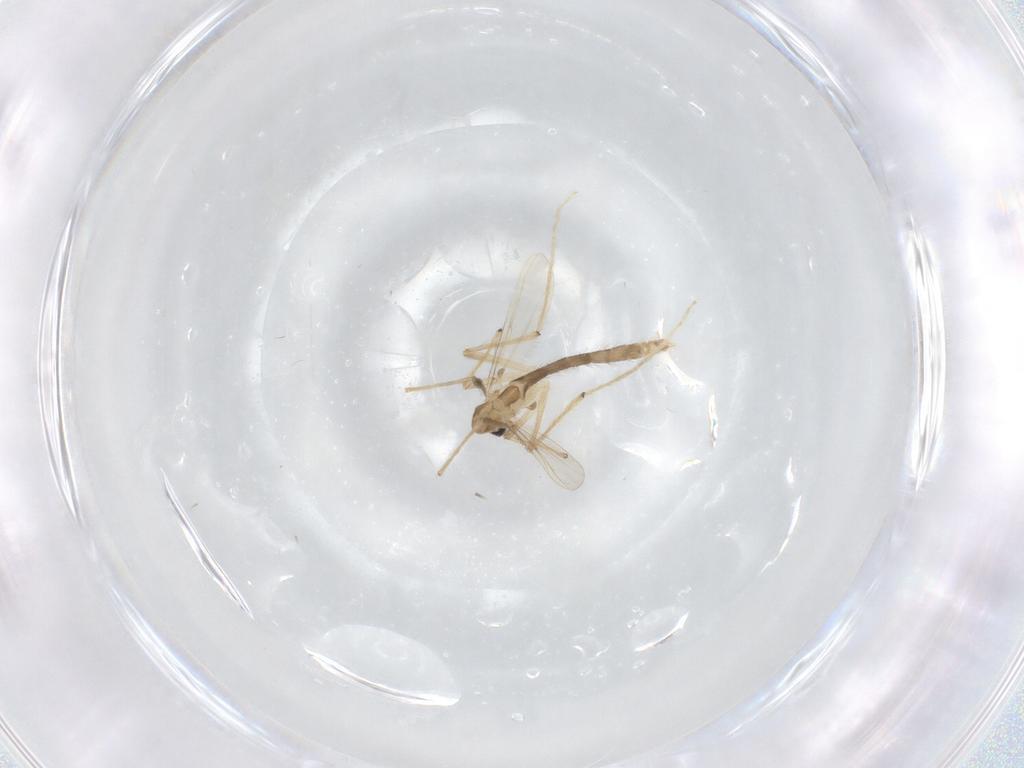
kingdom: Animalia
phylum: Arthropoda
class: Insecta
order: Diptera
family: Chironomidae
